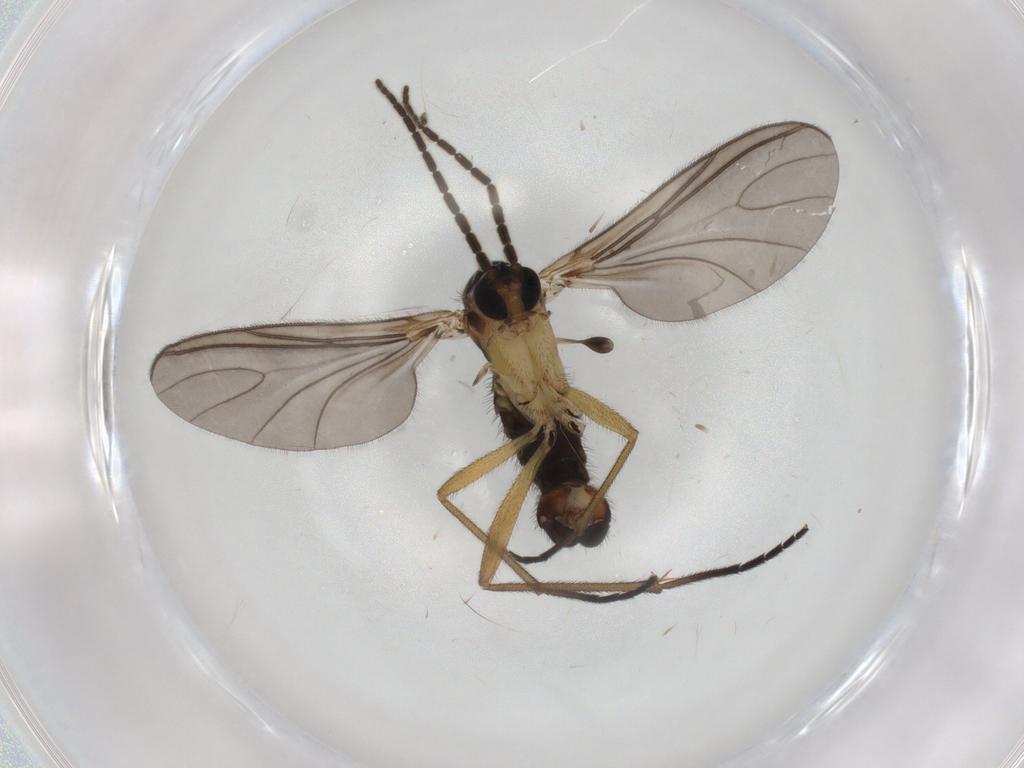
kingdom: Animalia
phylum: Arthropoda
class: Insecta
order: Diptera
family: Sciaridae
